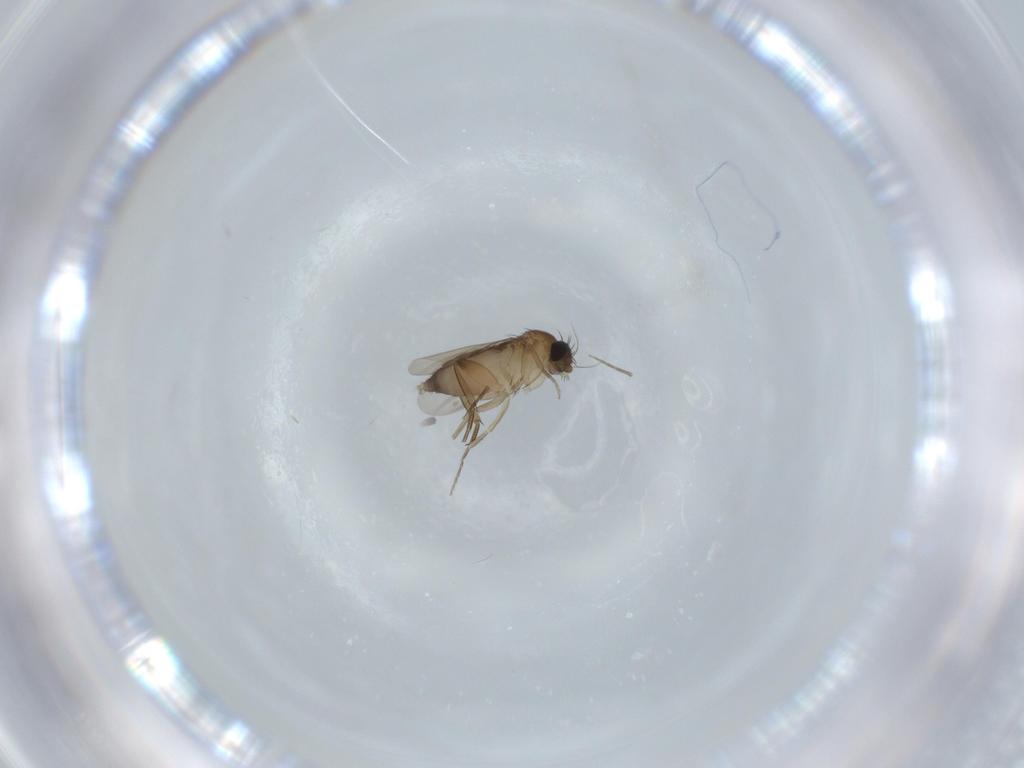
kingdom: Animalia
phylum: Arthropoda
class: Insecta
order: Diptera
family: Phoridae
